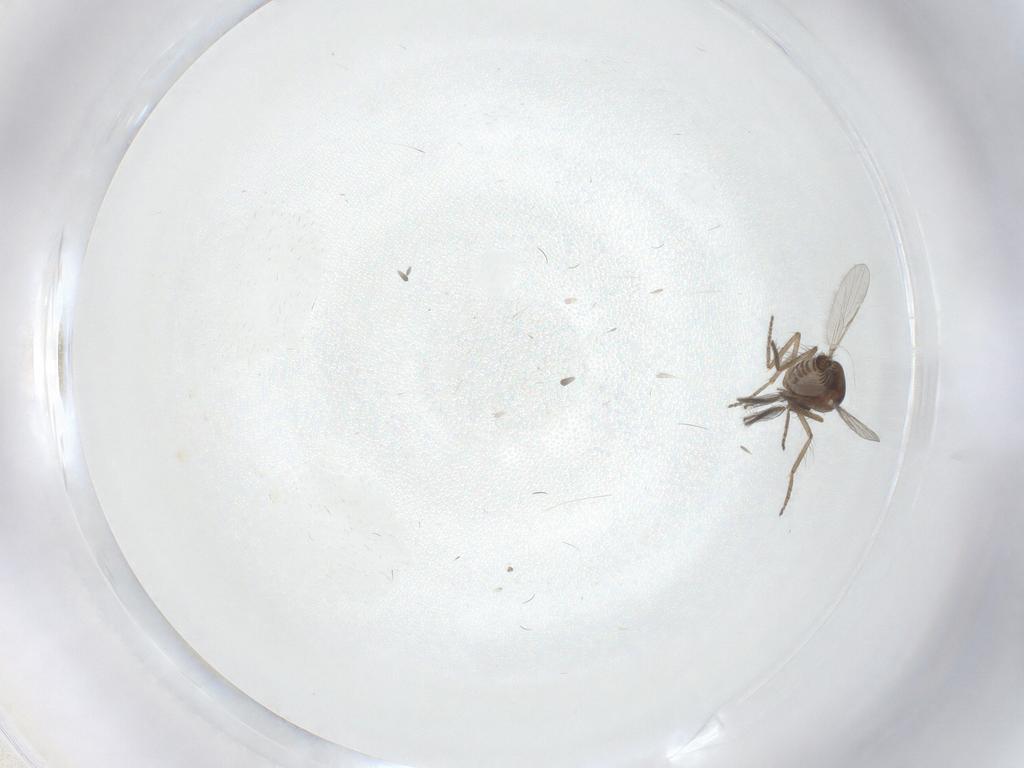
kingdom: Animalia
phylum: Arthropoda
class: Insecta
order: Diptera
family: Ceratopogonidae
